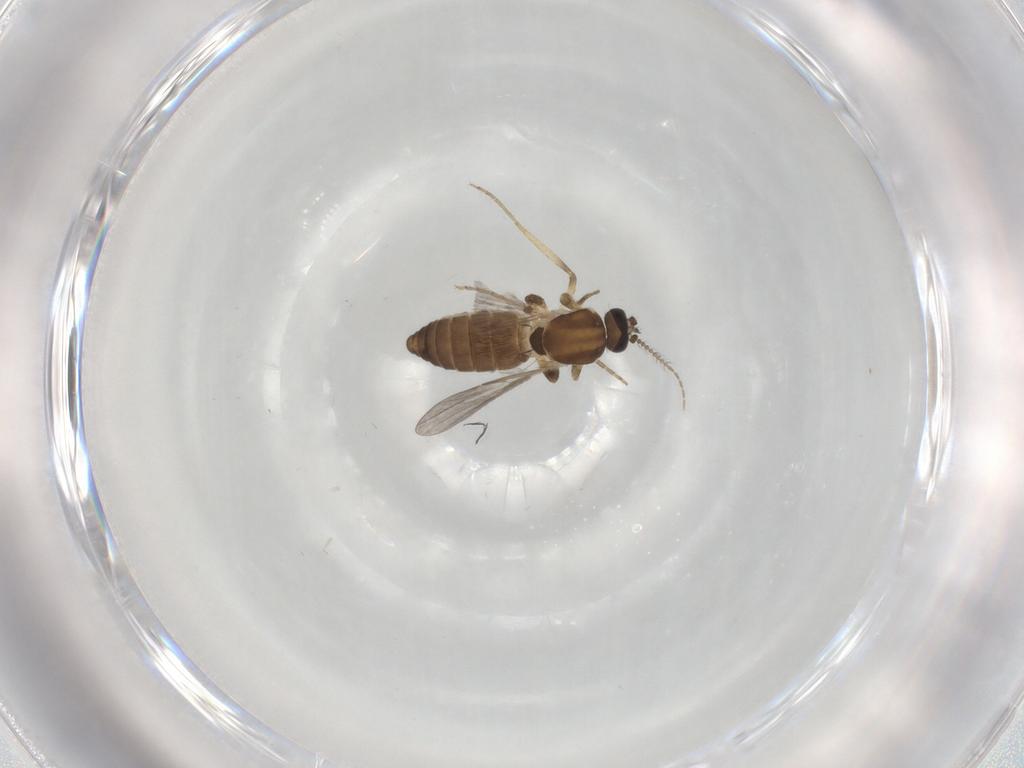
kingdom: Animalia
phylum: Arthropoda
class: Insecta
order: Diptera
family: Ceratopogonidae
